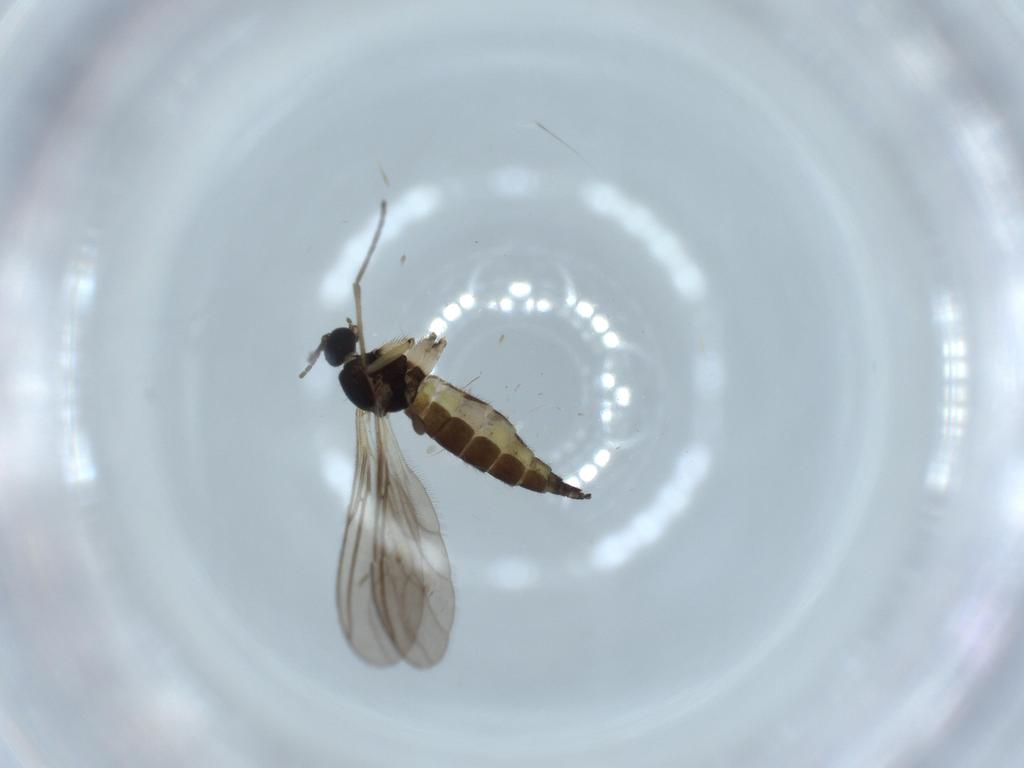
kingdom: Animalia
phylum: Arthropoda
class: Insecta
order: Diptera
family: Sciaridae
